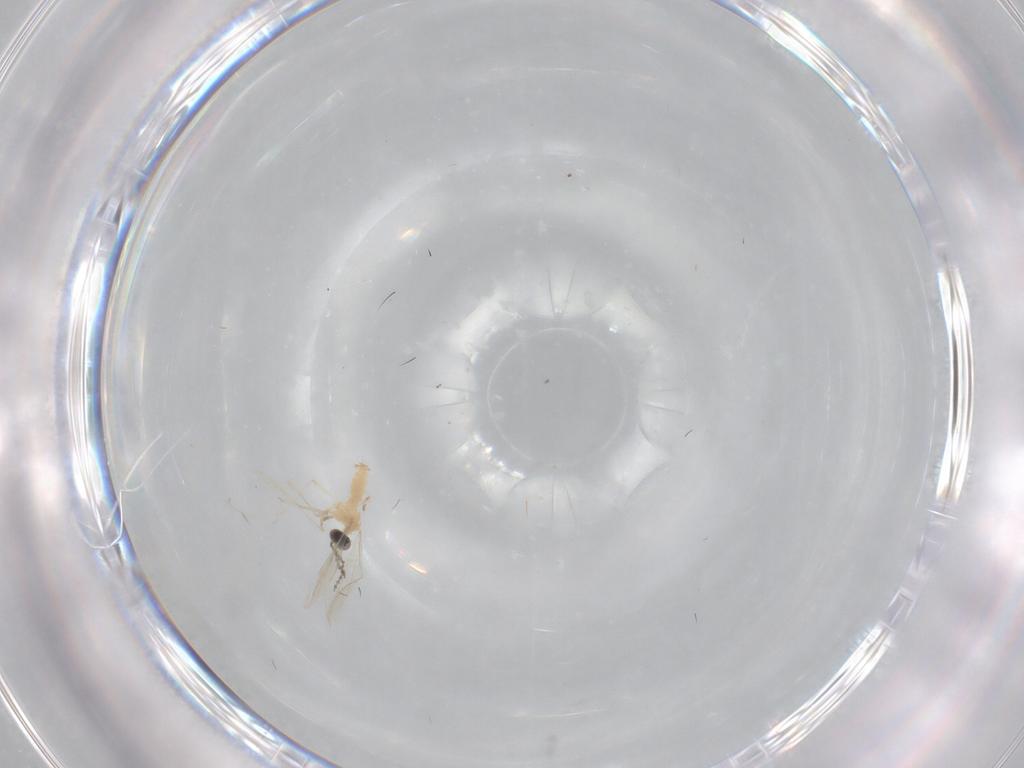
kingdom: Animalia
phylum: Arthropoda
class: Insecta
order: Diptera
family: Cecidomyiidae
